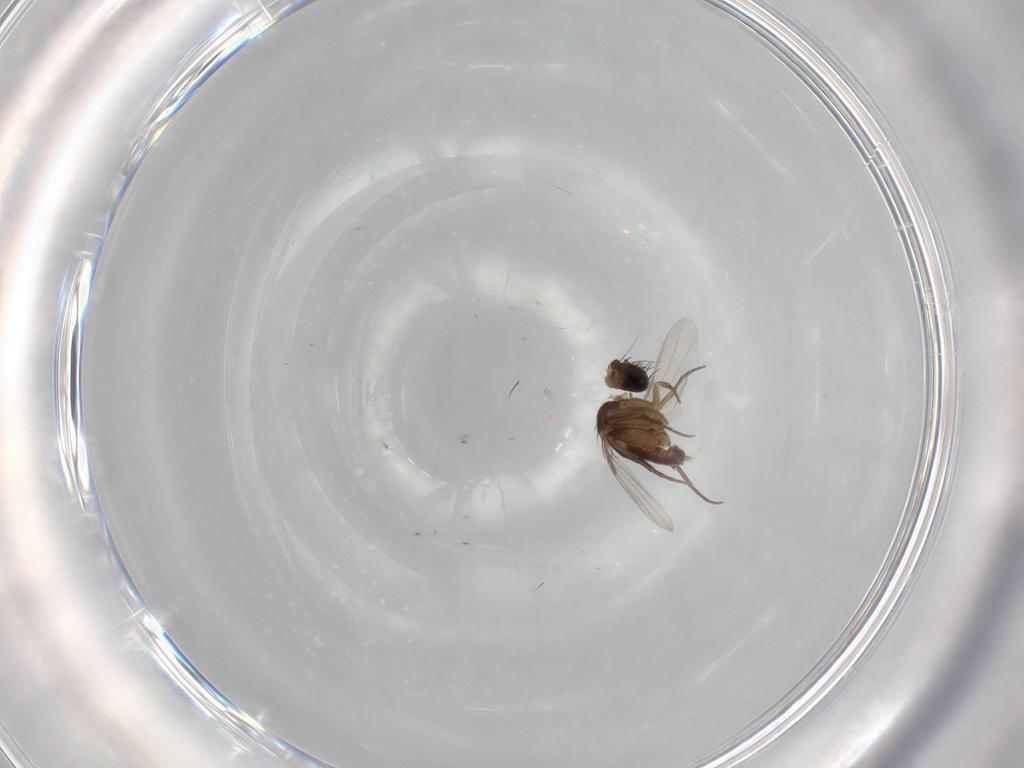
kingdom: Animalia
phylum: Arthropoda
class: Insecta
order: Diptera
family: Phoridae
